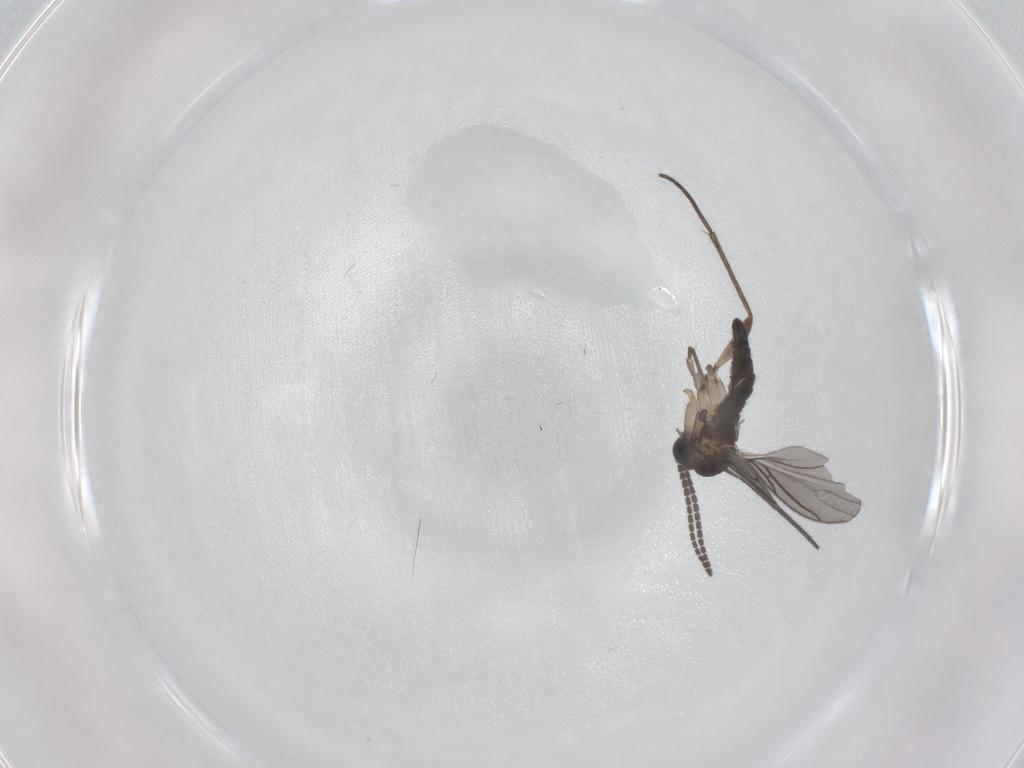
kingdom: Animalia
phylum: Arthropoda
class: Insecta
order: Diptera
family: Sciaridae
